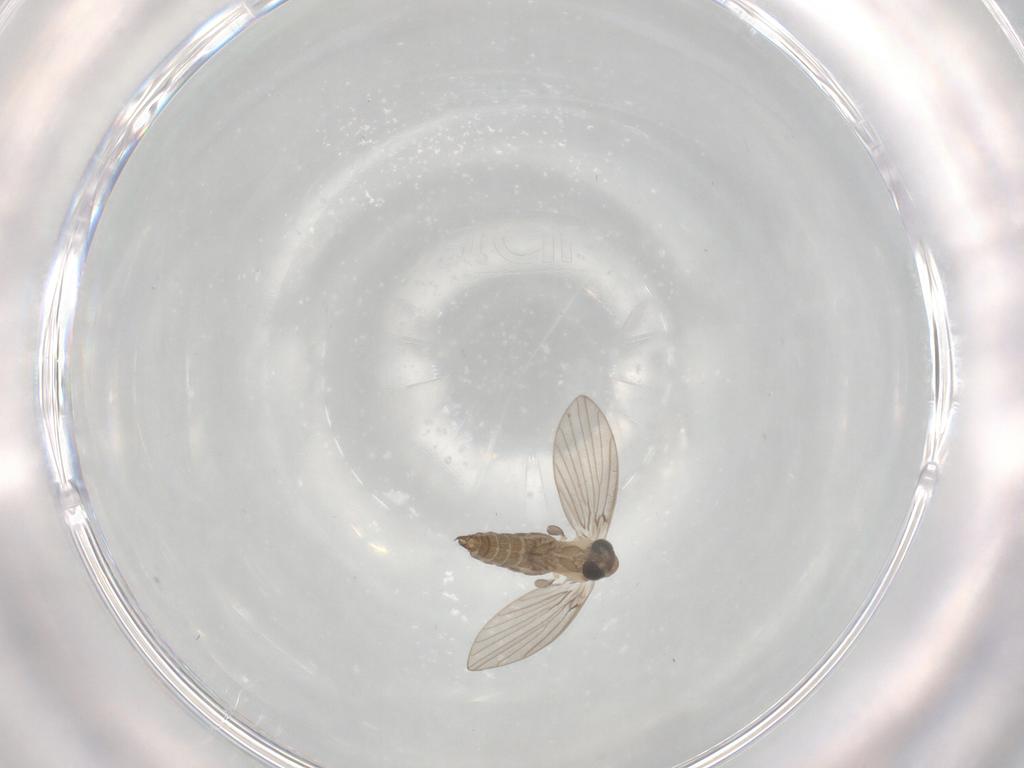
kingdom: Animalia
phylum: Arthropoda
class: Insecta
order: Diptera
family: Psychodidae
